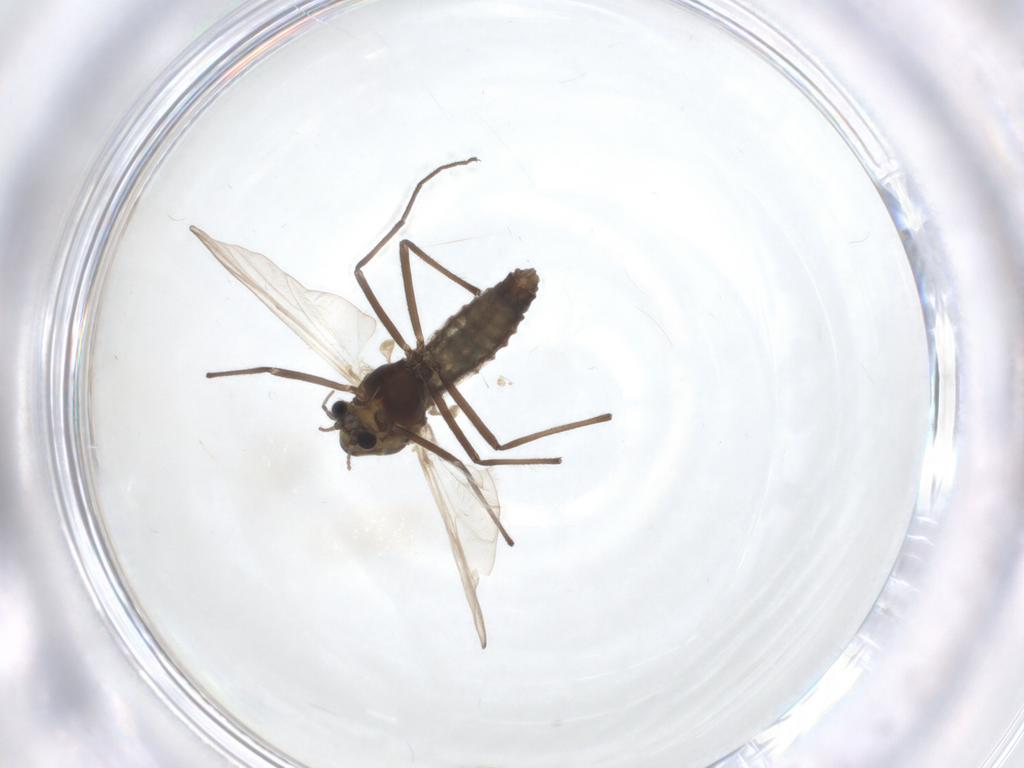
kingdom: Animalia
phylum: Arthropoda
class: Insecta
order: Diptera
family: Chironomidae
